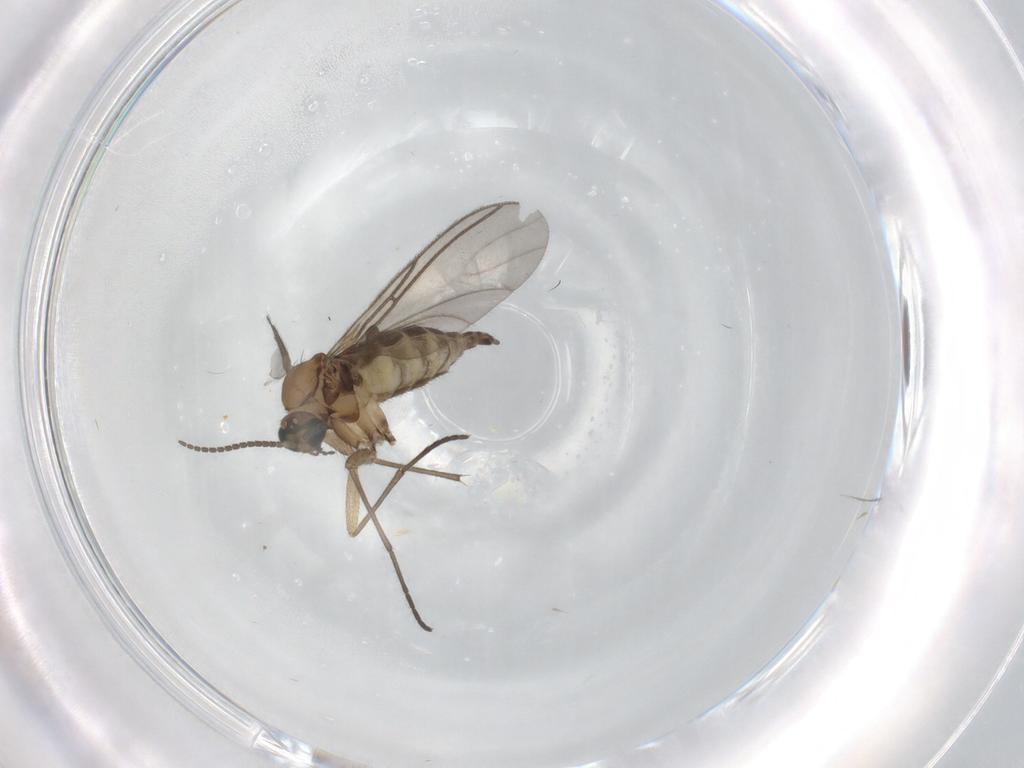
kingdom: Animalia
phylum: Arthropoda
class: Insecta
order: Diptera
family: Sciaridae
